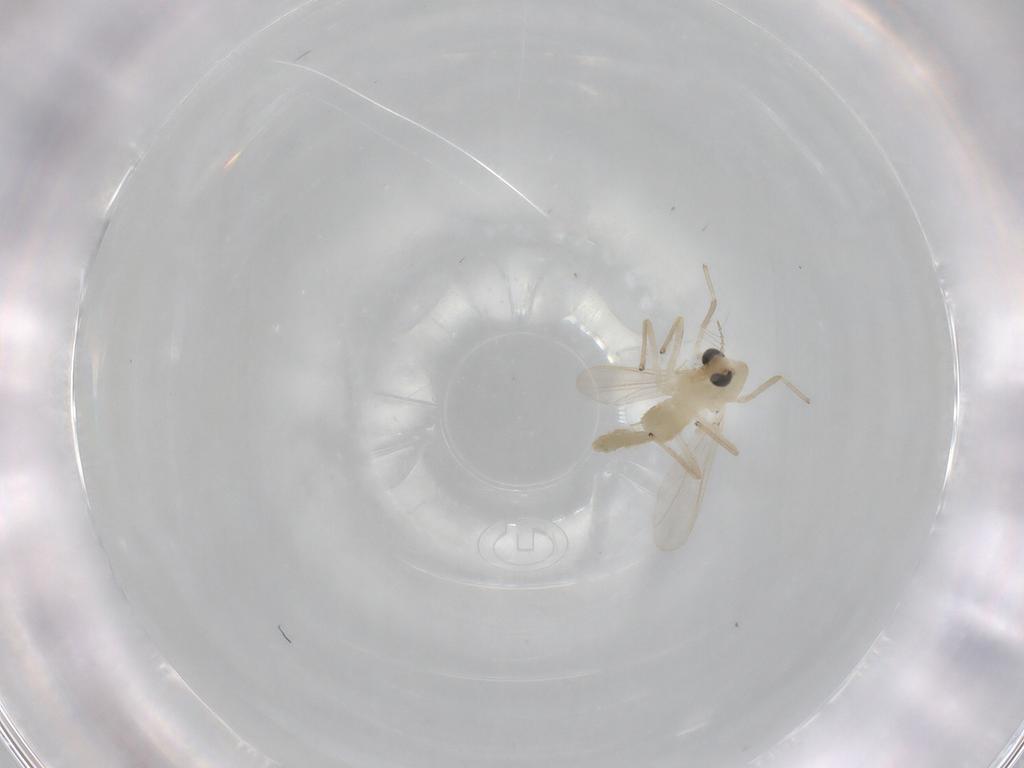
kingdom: Animalia
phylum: Arthropoda
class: Insecta
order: Diptera
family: Chironomidae
